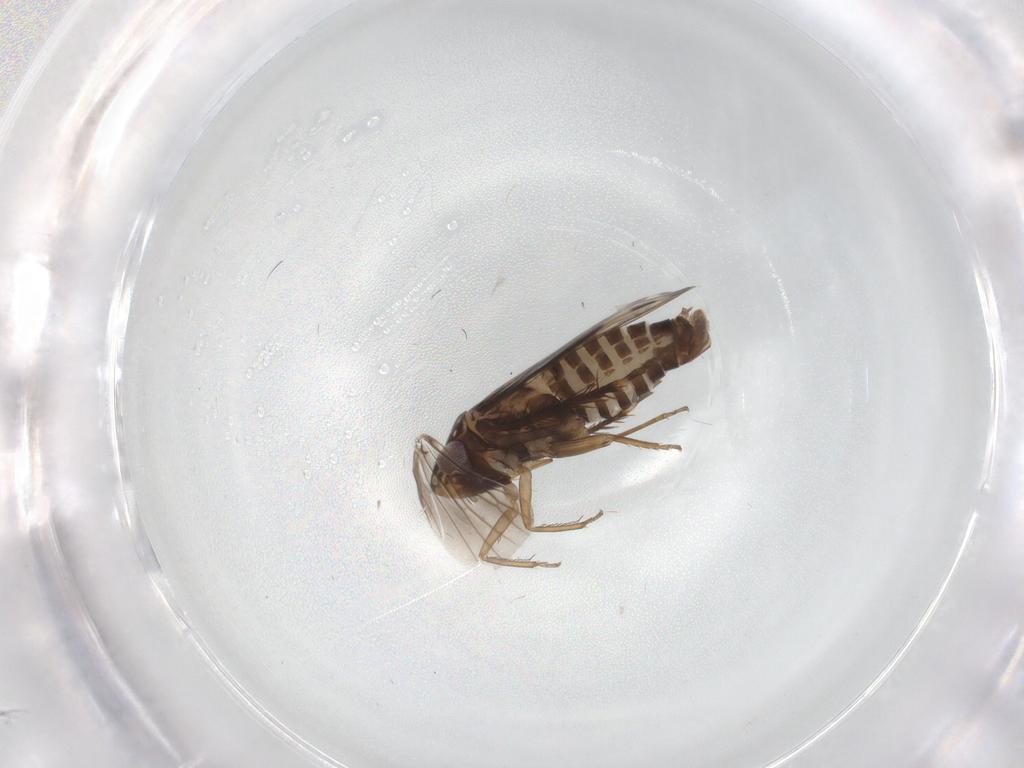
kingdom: Animalia
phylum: Arthropoda
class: Insecta
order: Hemiptera
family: Cicadellidae
